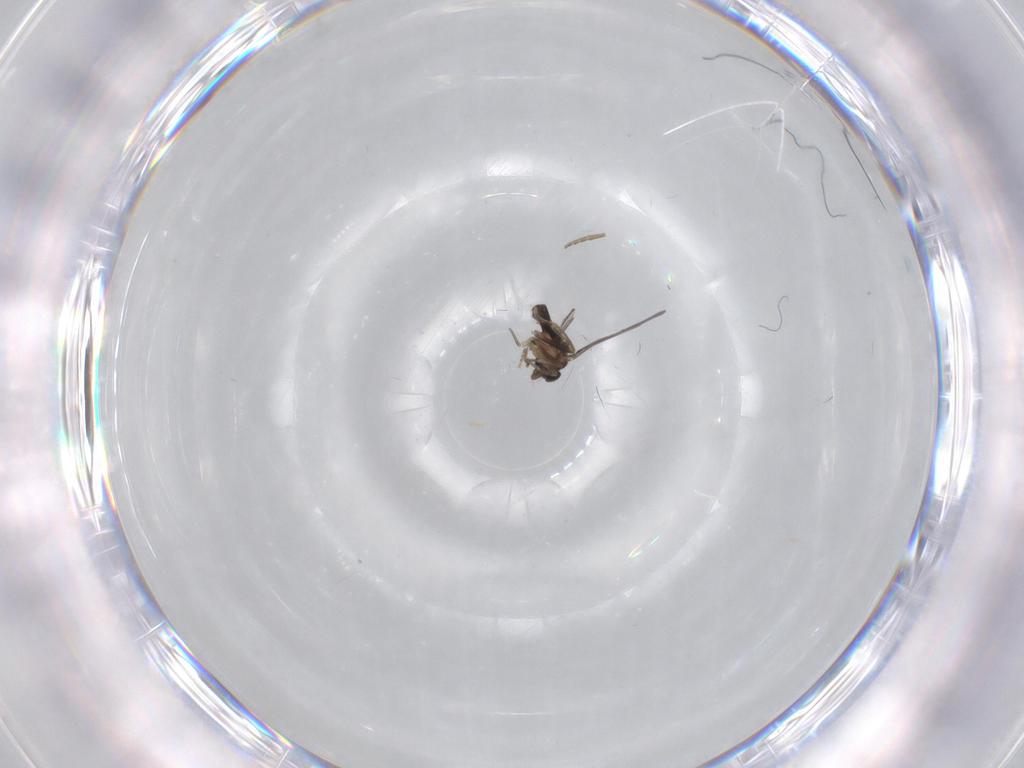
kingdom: Animalia
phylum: Arthropoda
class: Insecta
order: Diptera
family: Phoridae
